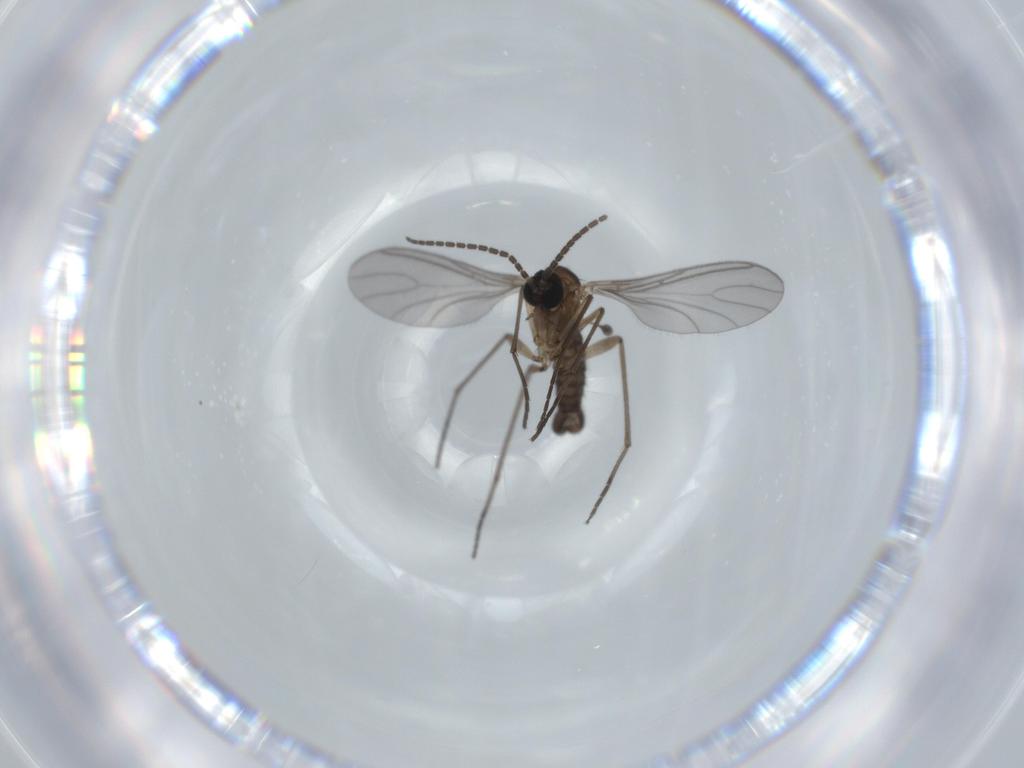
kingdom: Animalia
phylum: Arthropoda
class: Insecta
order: Diptera
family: Sciaridae
